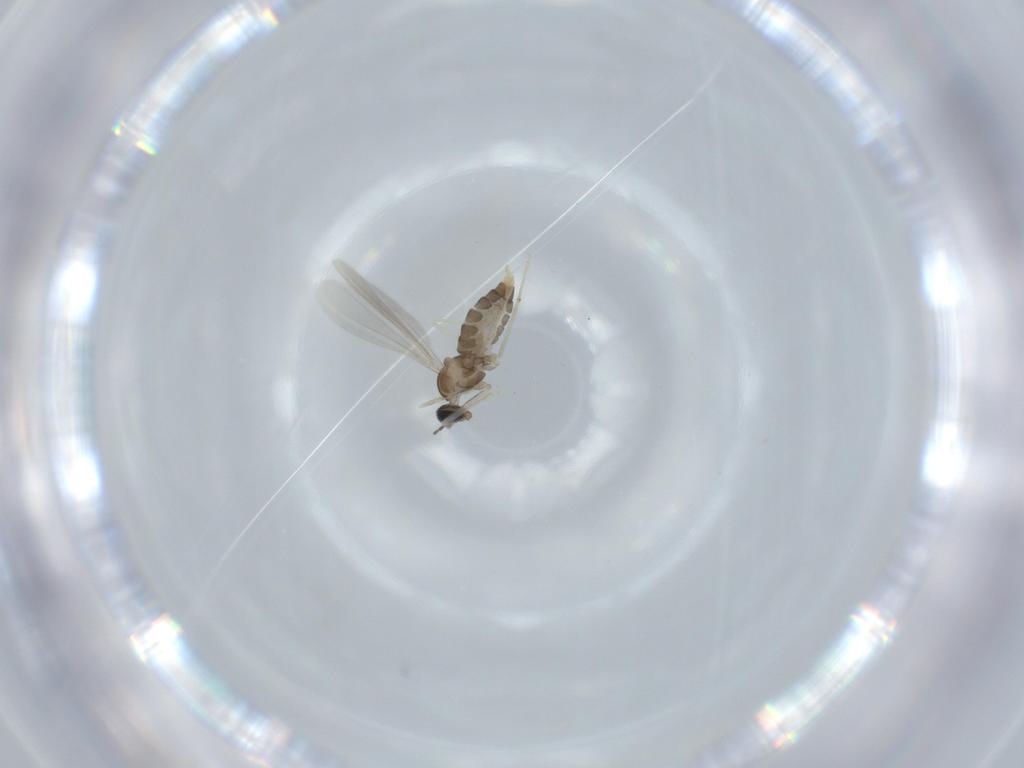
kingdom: Animalia
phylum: Arthropoda
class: Insecta
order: Diptera
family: Cecidomyiidae
